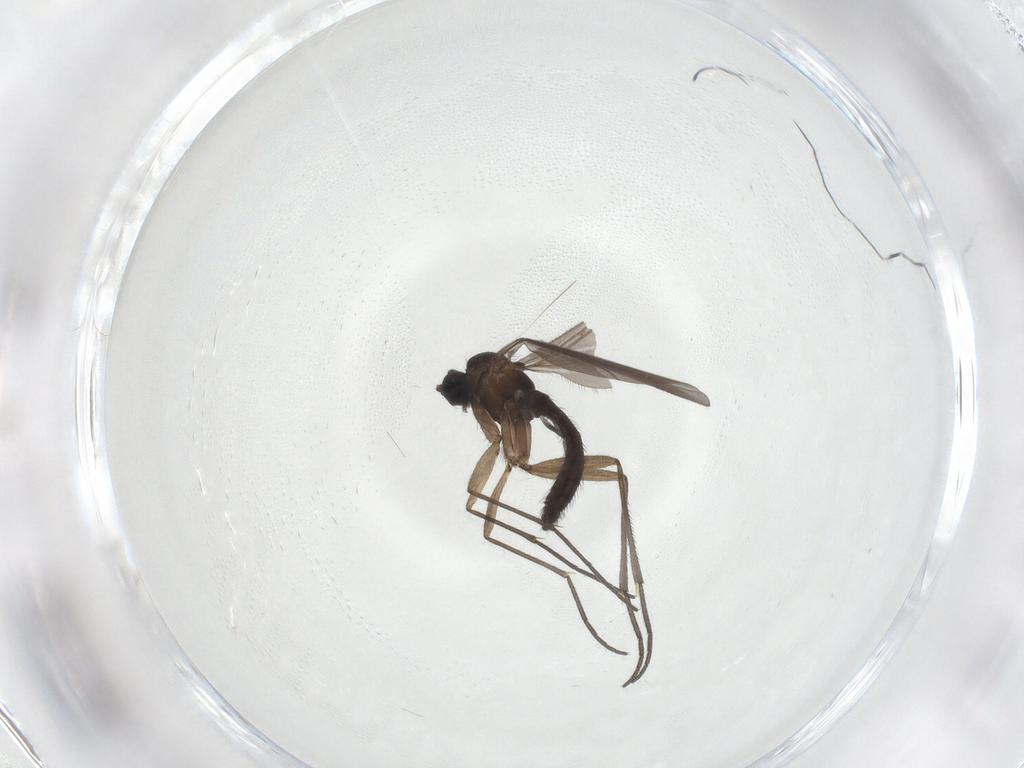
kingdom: Animalia
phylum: Arthropoda
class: Insecta
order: Diptera
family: Sciaridae
